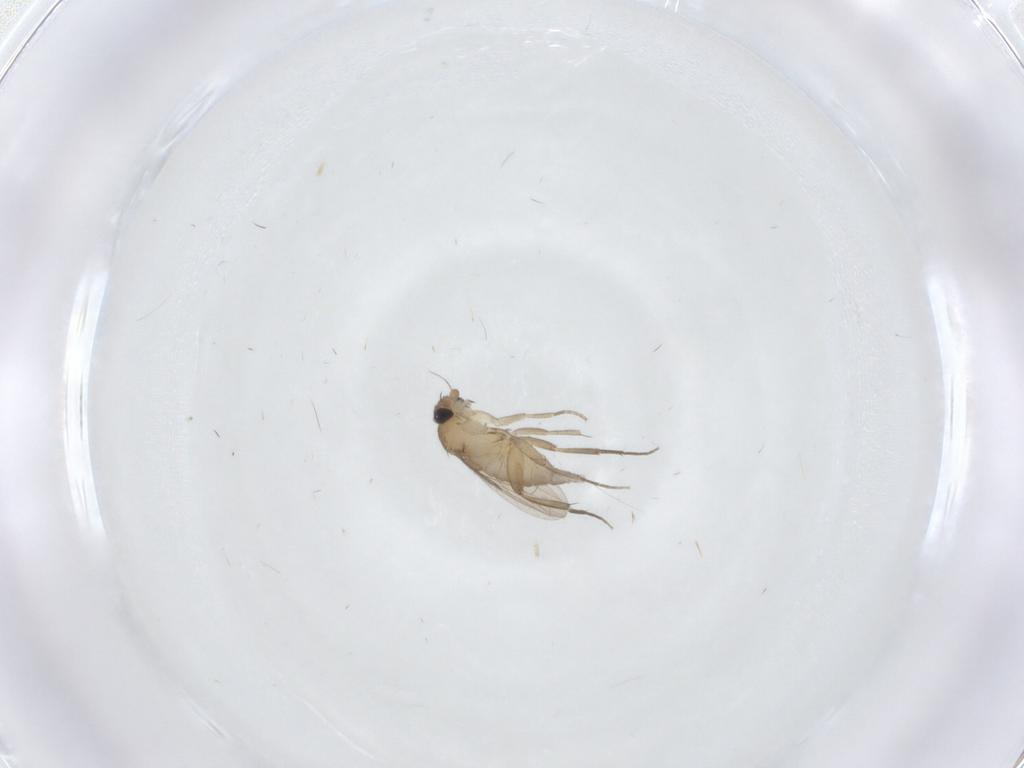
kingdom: Animalia
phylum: Arthropoda
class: Insecta
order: Diptera
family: Phoridae
